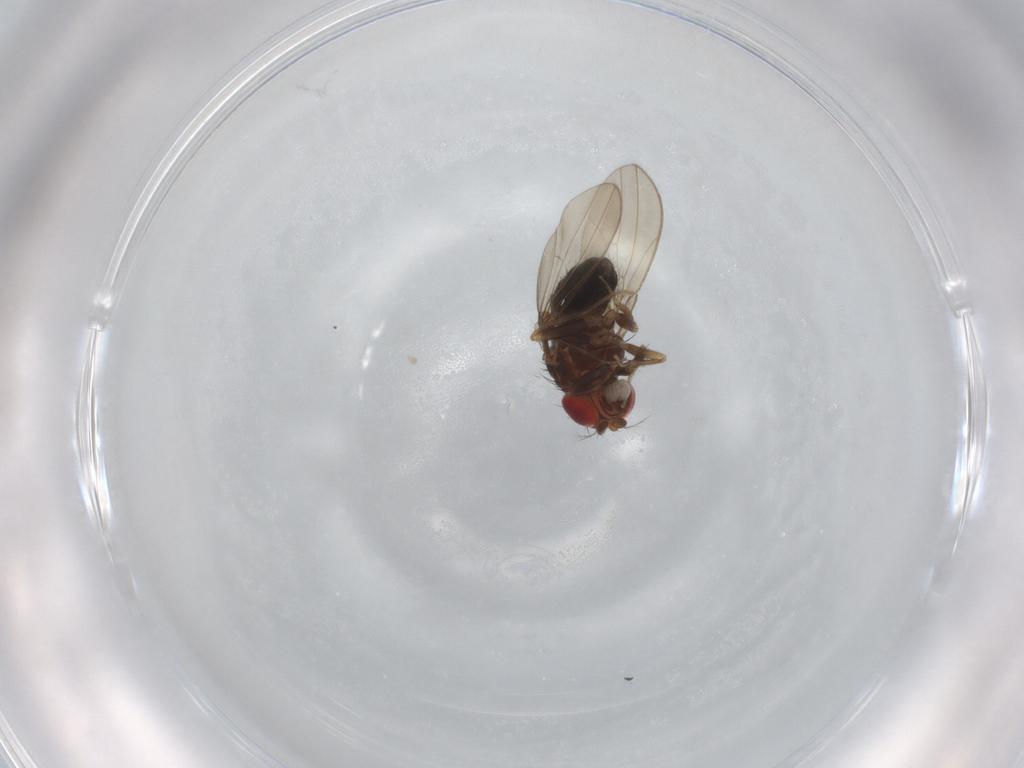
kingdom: Animalia
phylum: Arthropoda
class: Insecta
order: Diptera
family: Drosophilidae
